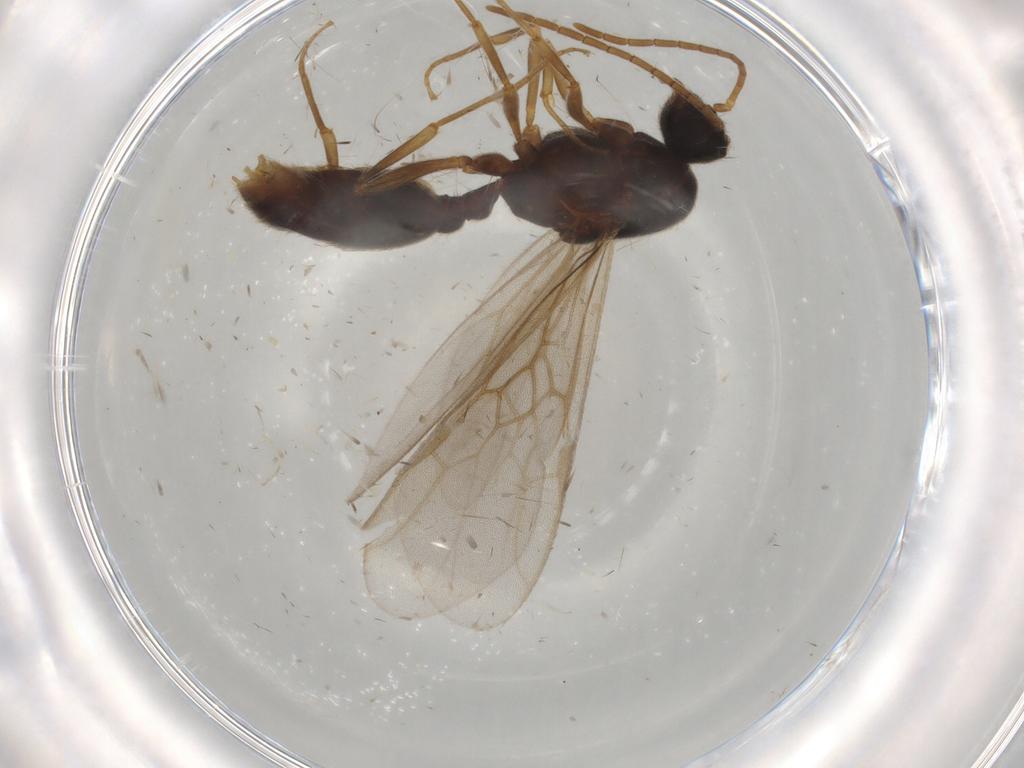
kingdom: Animalia
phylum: Arthropoda
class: Insecta
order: Hymenoptera
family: Formicidae
